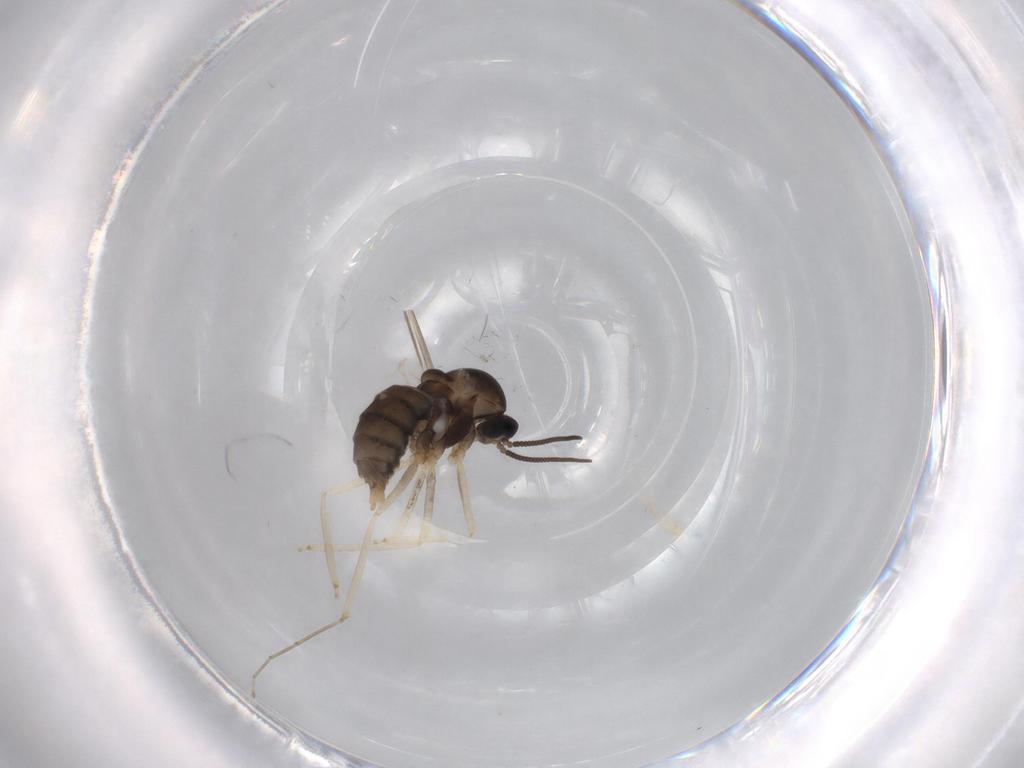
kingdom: Animalia
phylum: Arthropoda
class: Insecta
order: Diptera
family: Cecidomyiidae
